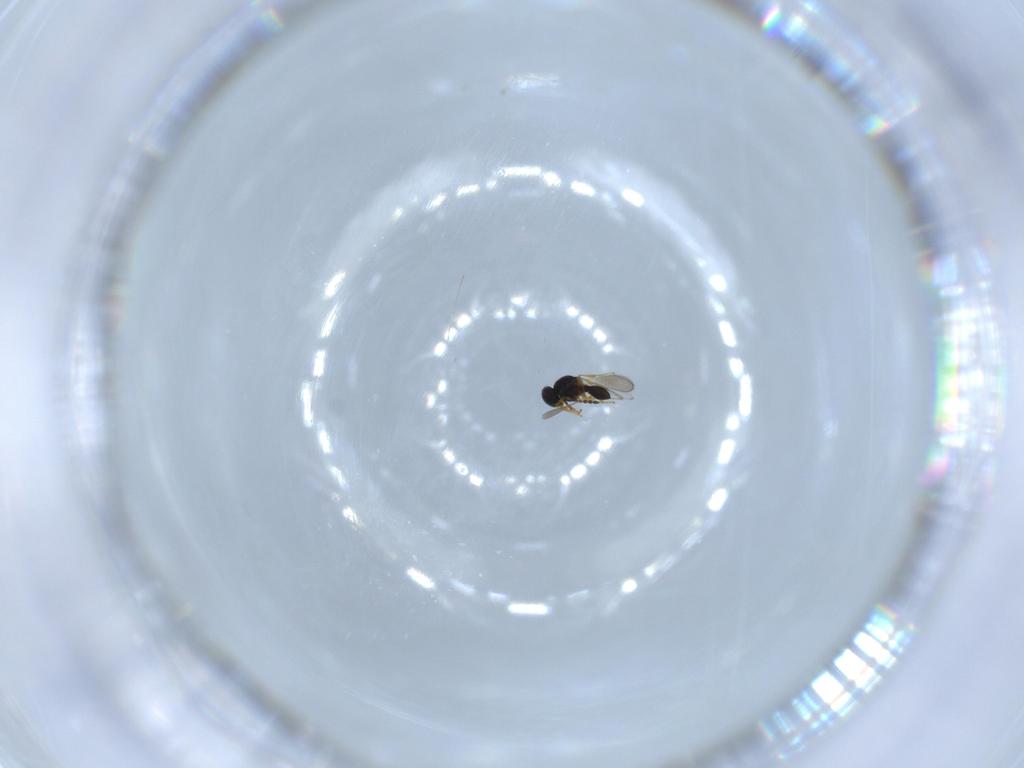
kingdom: Animalia
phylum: Arthropoda
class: Insecta
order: Hymenoptera
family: Platygastridae
